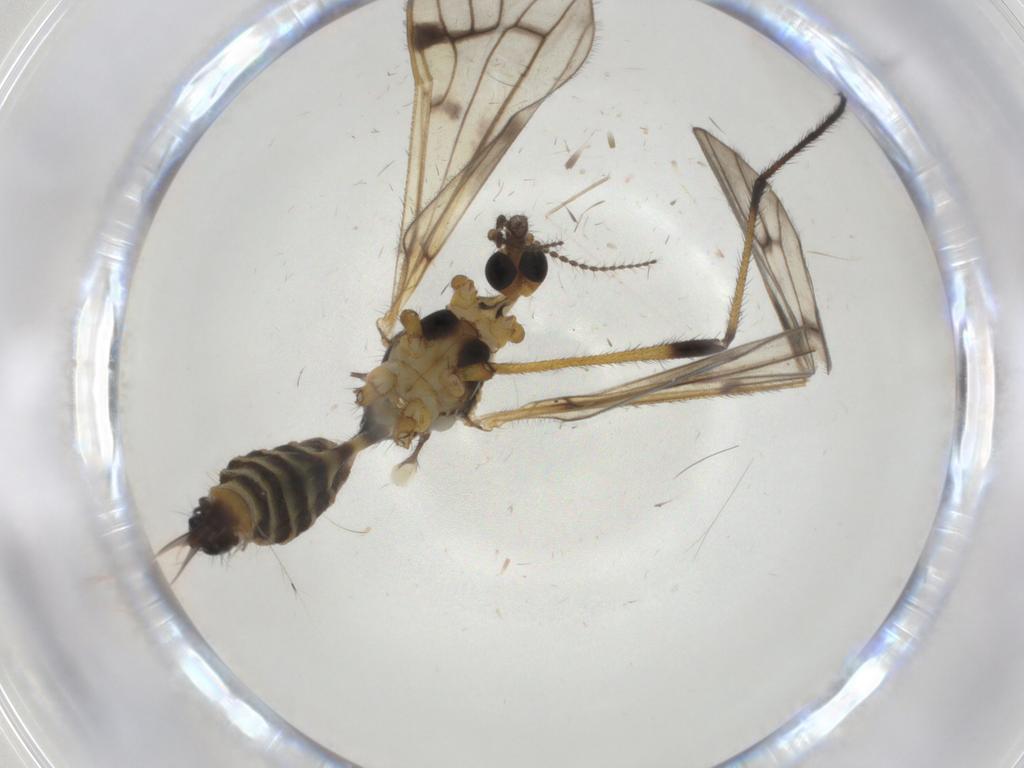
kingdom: Animalia
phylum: Arthropoda
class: Insecta
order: Diptera
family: Limoniidae
